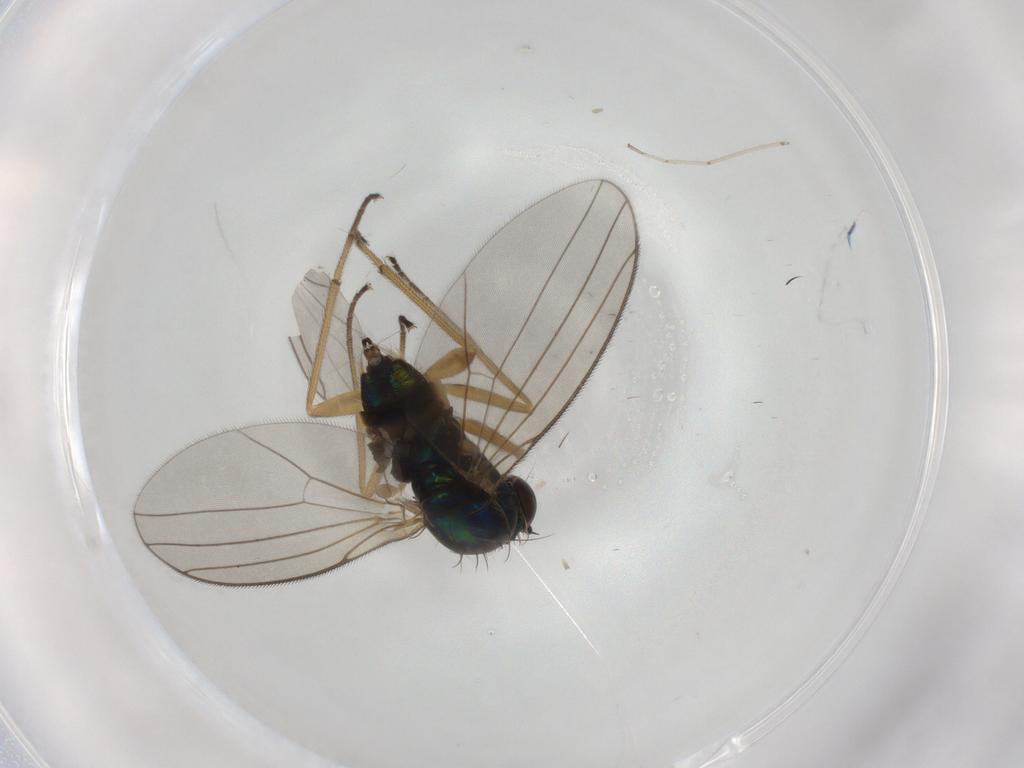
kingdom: Animalia
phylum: Arthropoda
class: Insecta
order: Diptera
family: Dolichopodidae
